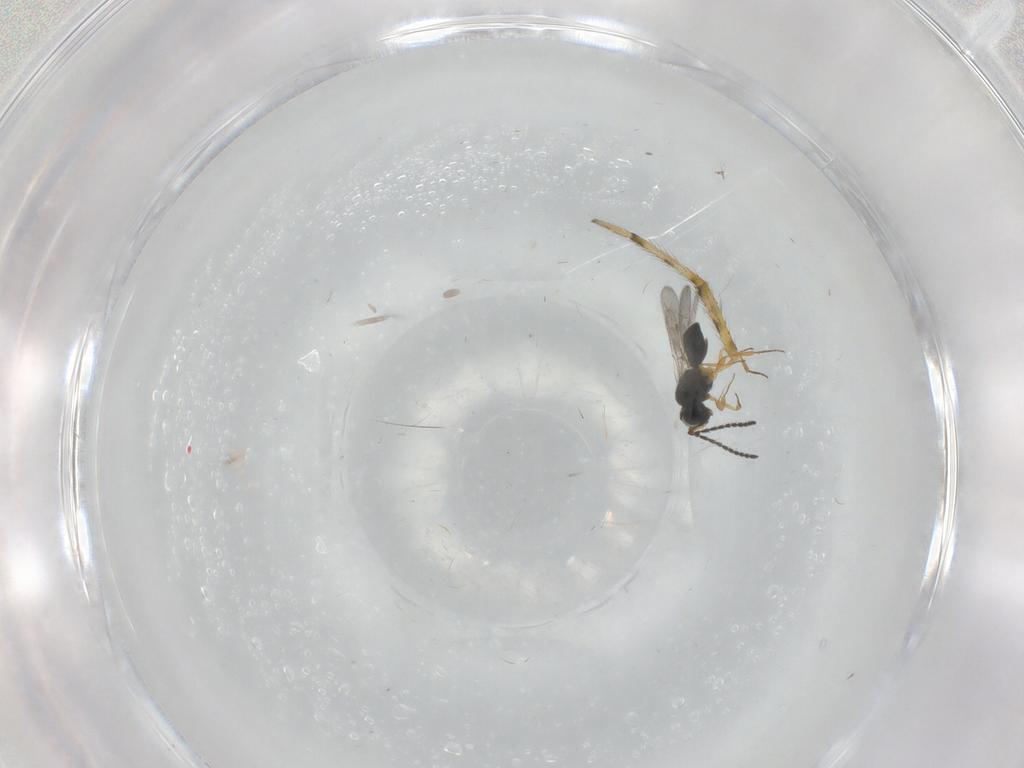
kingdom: Animalia
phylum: Arthropoda
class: Insecta
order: Hymenoptera
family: Scelionidae
